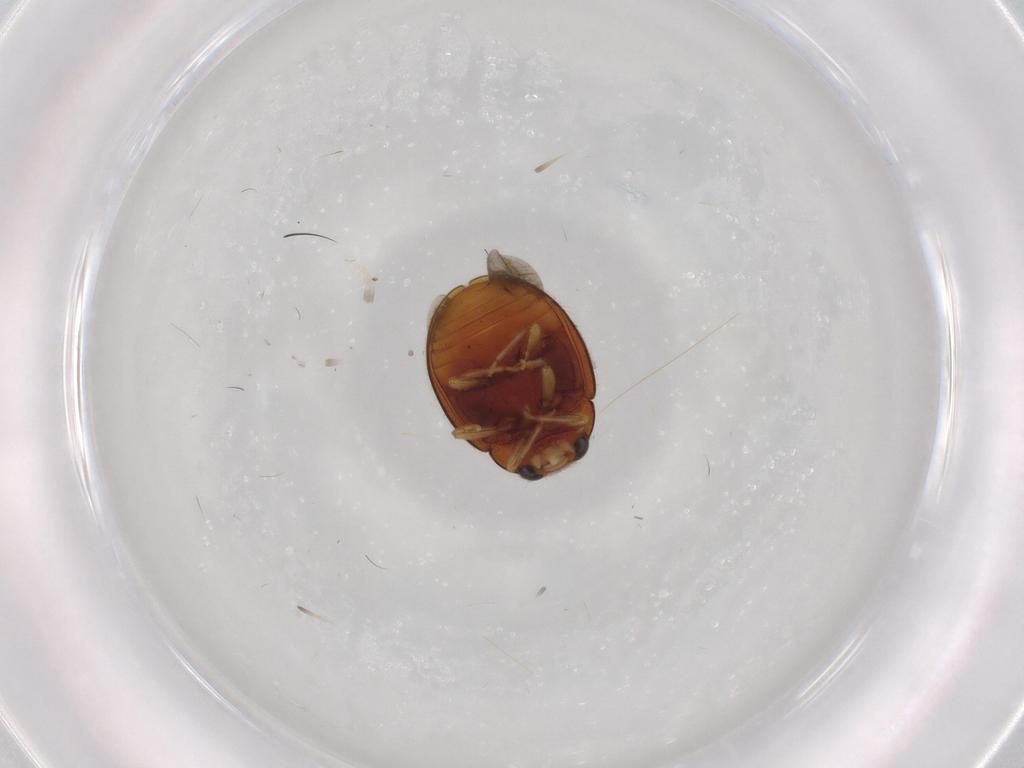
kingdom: Animalia
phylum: Arthropoda
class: Insecta
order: Coleoptera
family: Coccinellidae
